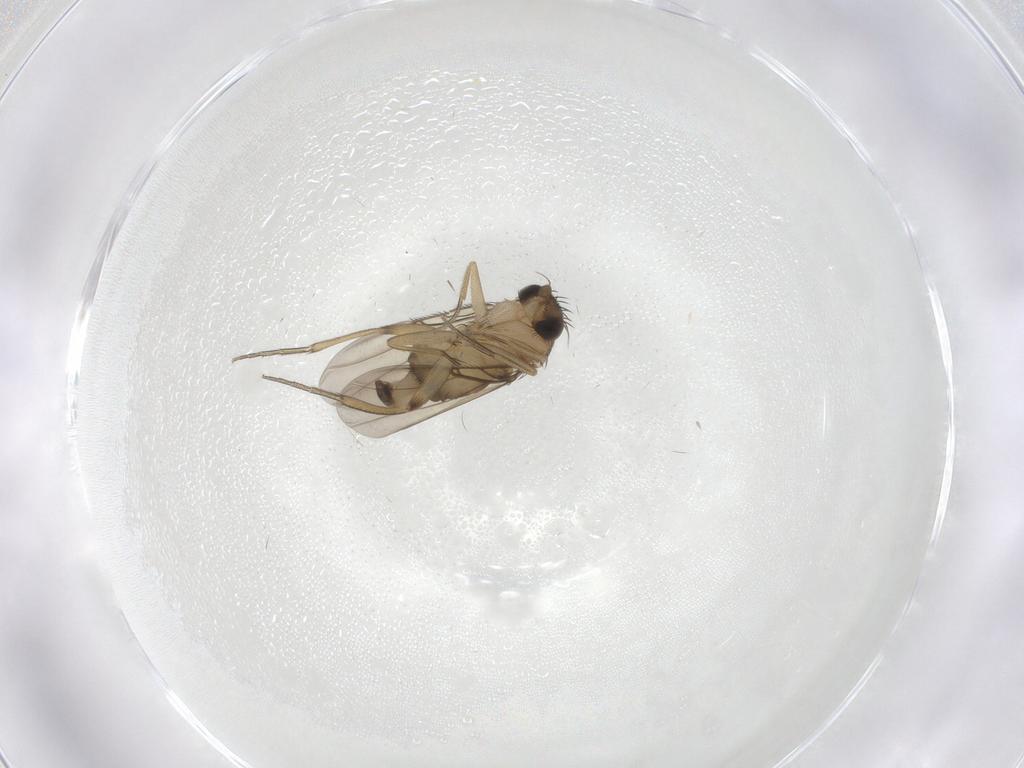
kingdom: Animalia
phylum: Arthropoda
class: Insecta
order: Diptera
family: Phoridae
